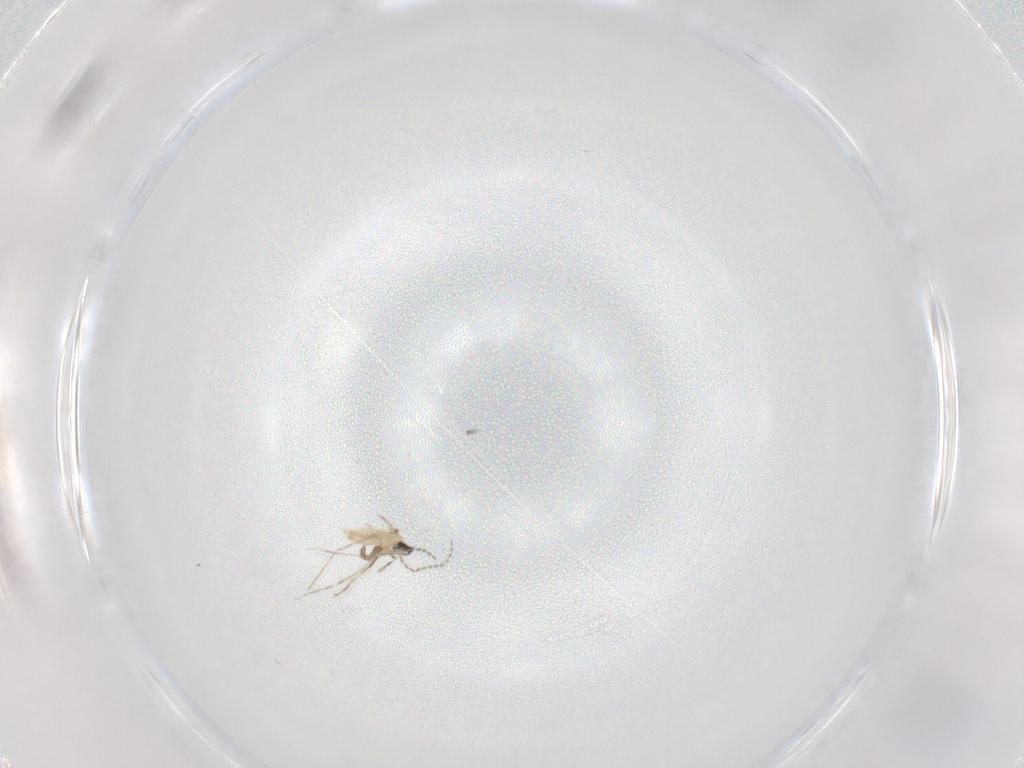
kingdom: Animalia
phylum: Arthropoda
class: Insecta
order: Diptera
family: Cecidomyiidae
